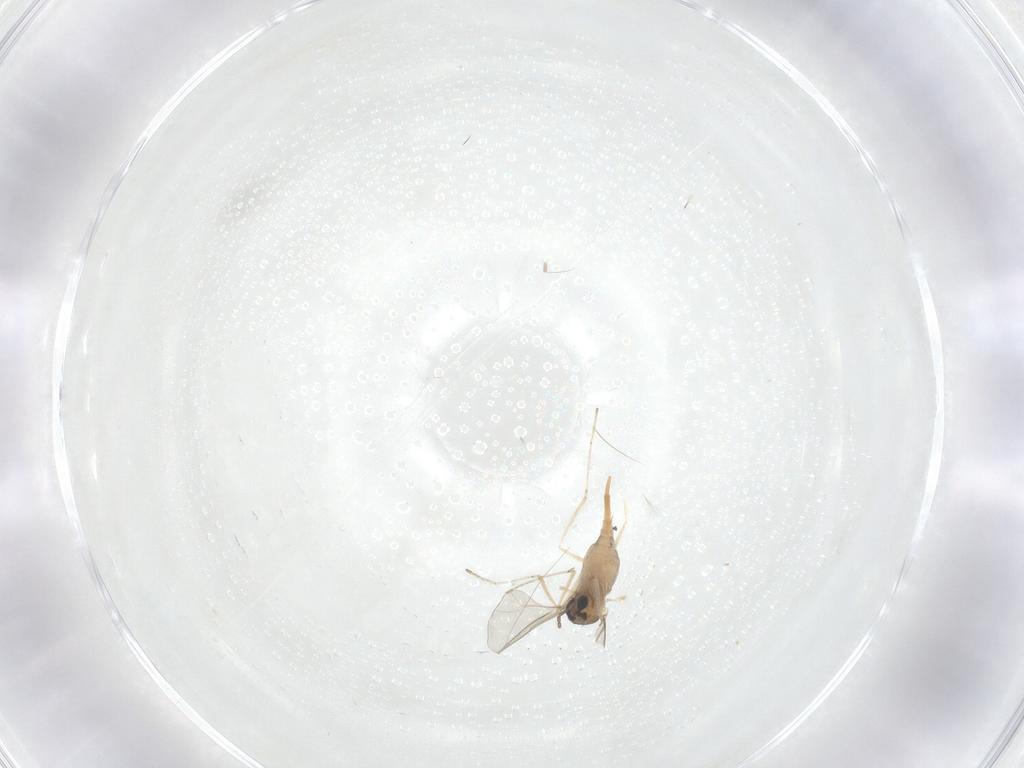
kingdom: Animalia
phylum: Arthropoda
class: Insecta
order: Diptera
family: Cecidomyiidae
